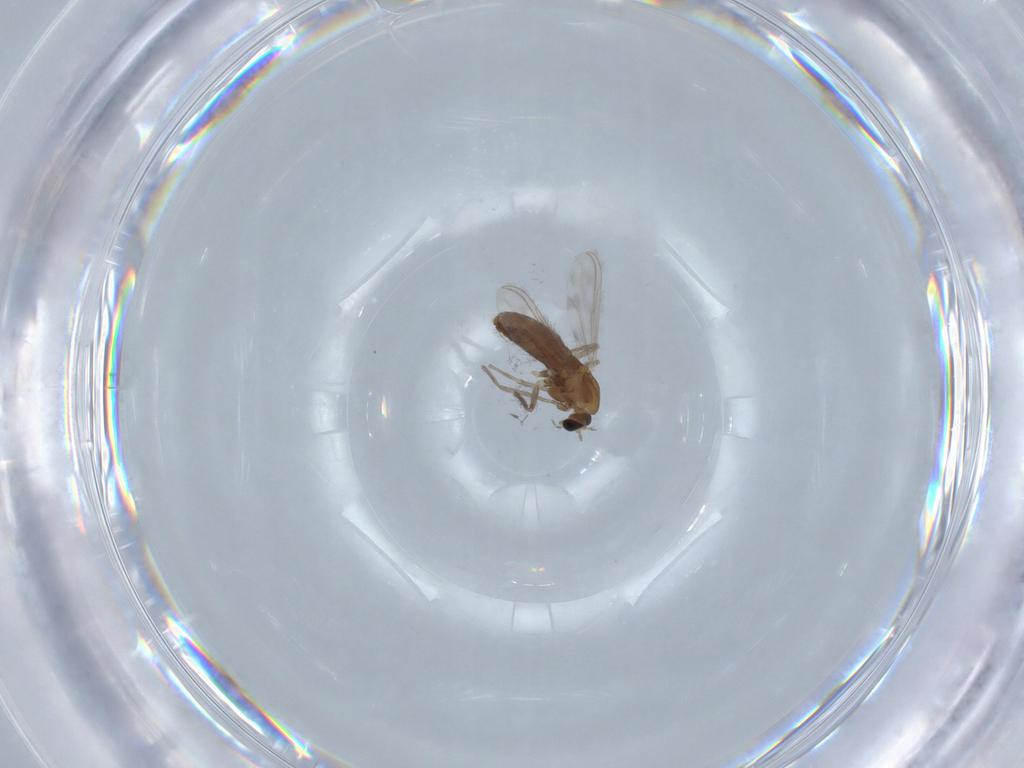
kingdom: Animalia
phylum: Arthropoda
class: Insecta
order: Diptera
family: Chironomidae
